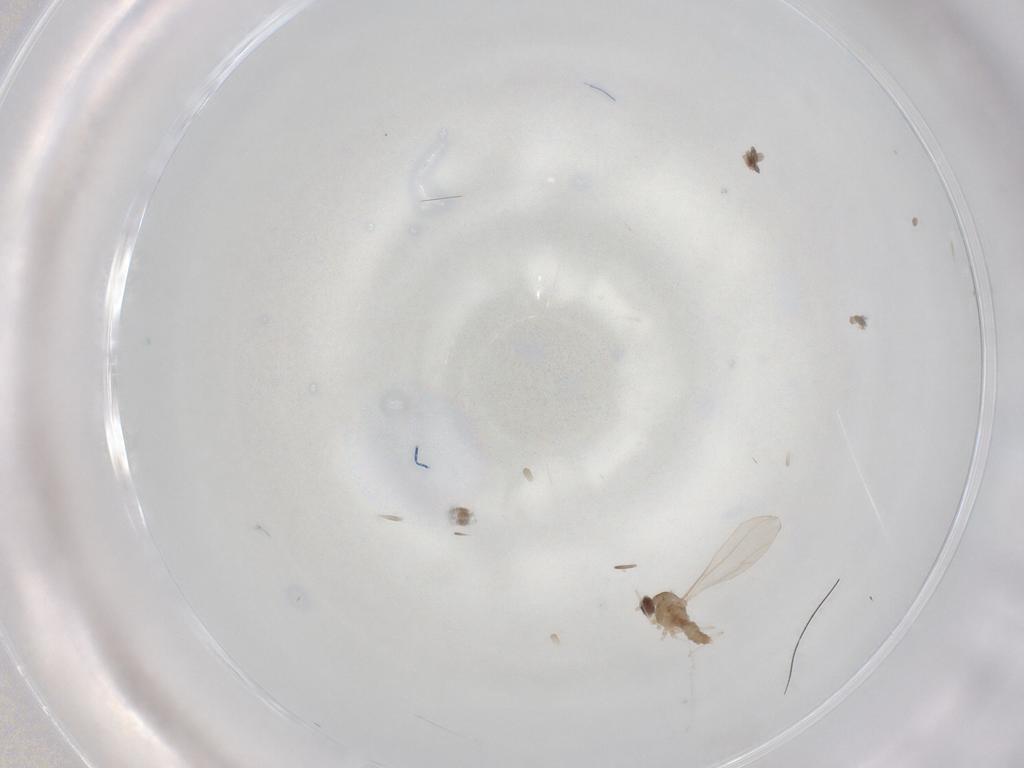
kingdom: Animalia
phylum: Arthropoda
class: Insecta
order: Diptera
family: Cecidomyiidae
